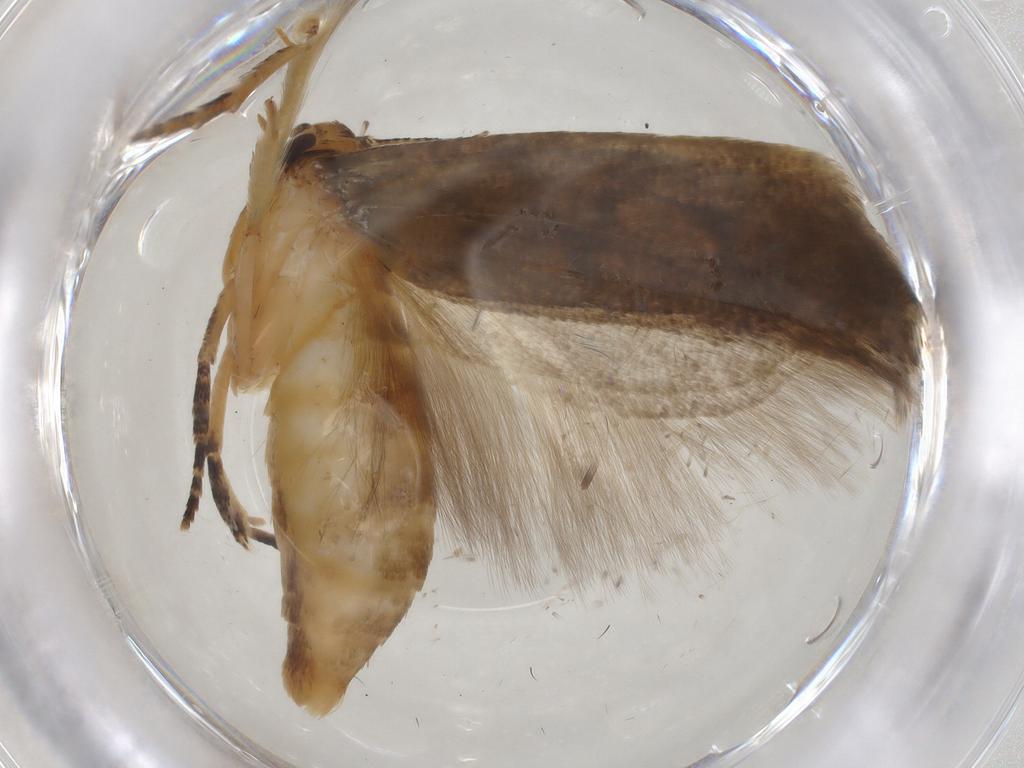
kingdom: Animalia
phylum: Arthropoda
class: Insecta
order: Lepidoptera
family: Gelechiidae
